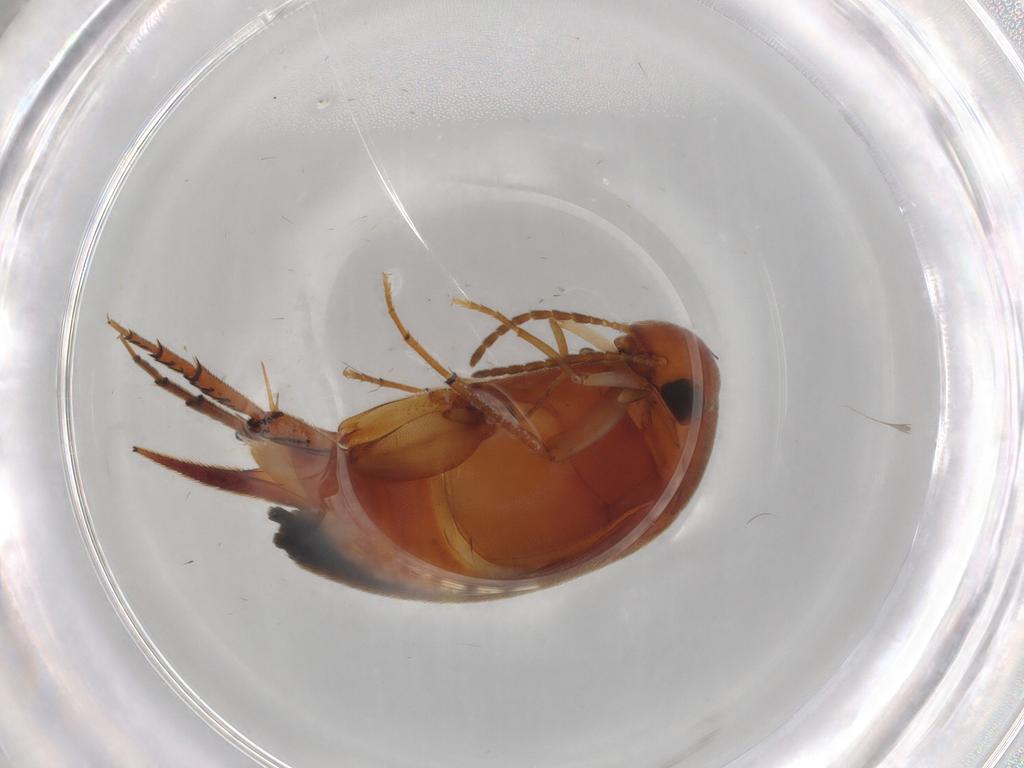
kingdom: Animalia
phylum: Arthropoda
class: Insecta
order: Coleoptera
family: Mordellidae
